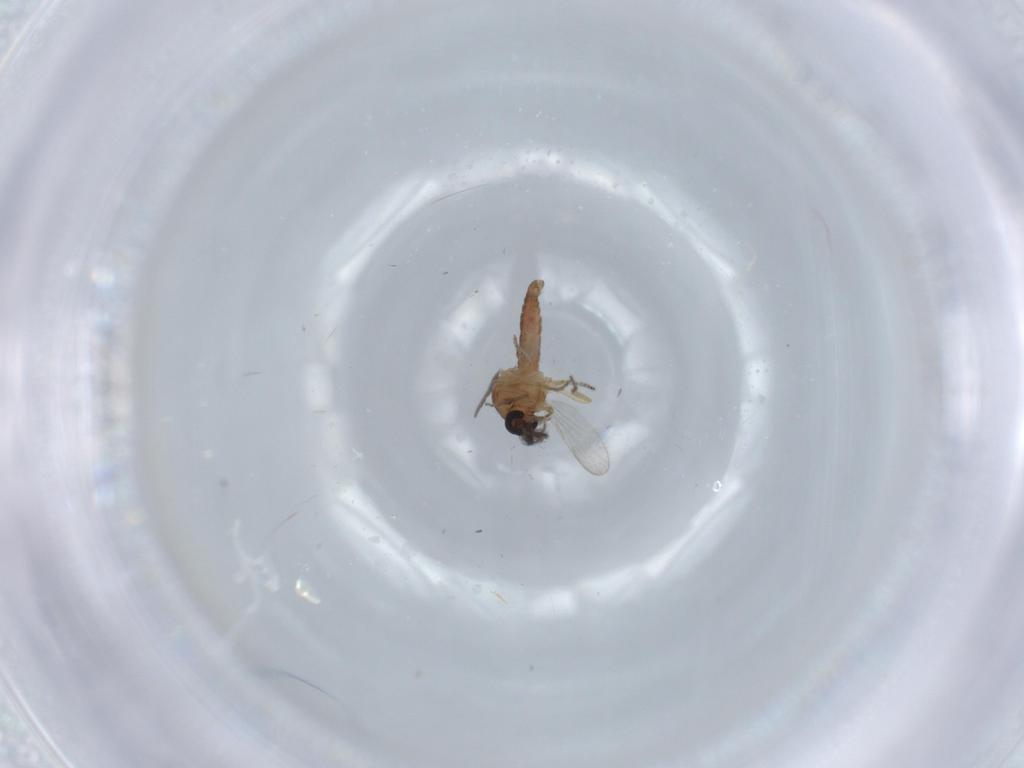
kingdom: Animalia
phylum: Arthropoda
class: Insecta
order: Diptera
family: Ceratopogonidae
